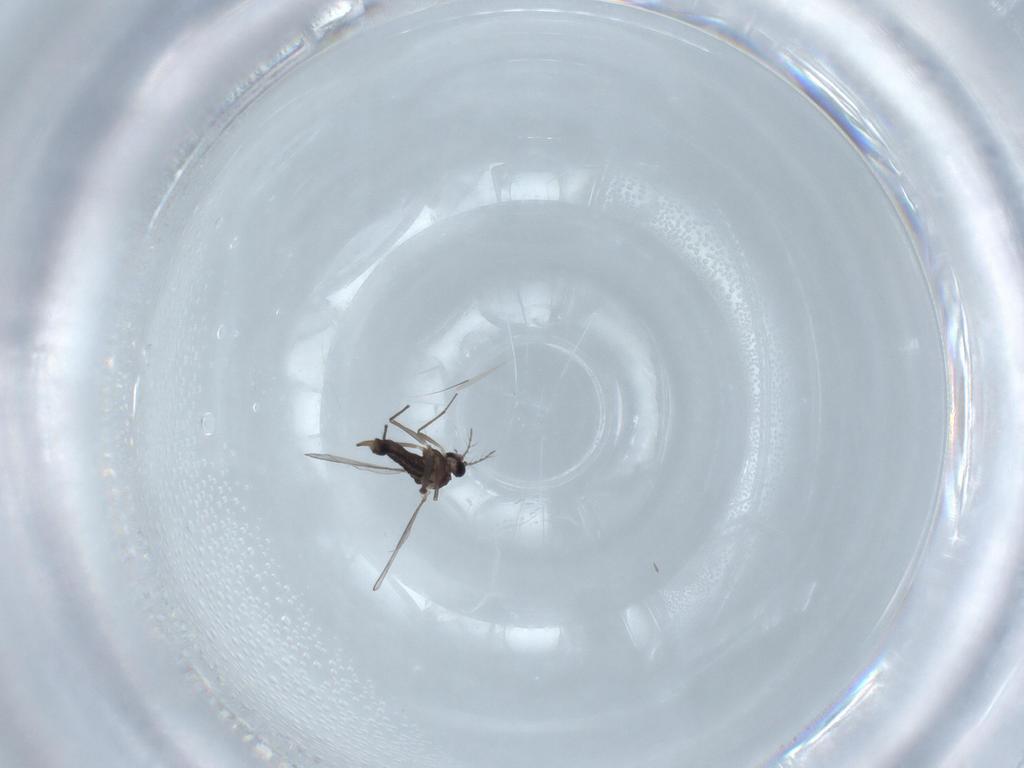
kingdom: Animalia
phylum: Arthropoda
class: Insecta
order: Diptera
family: Chironomidae
